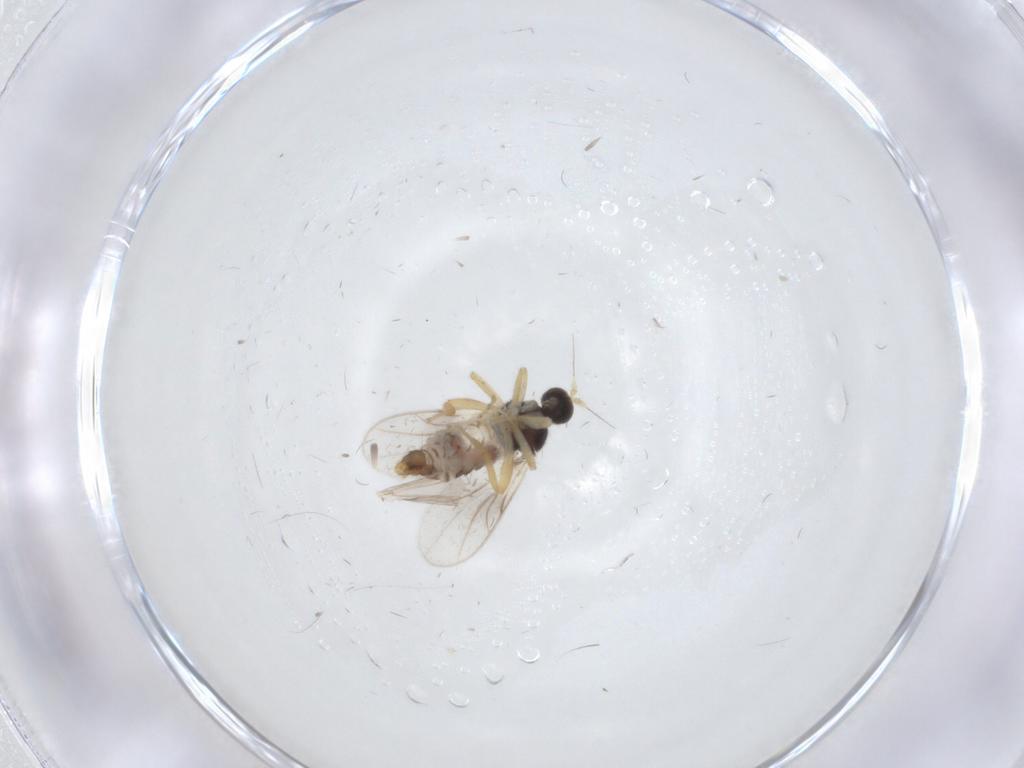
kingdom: Animalia
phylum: Arthropoda
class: Insecta
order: Diptera
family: Hybotidae
